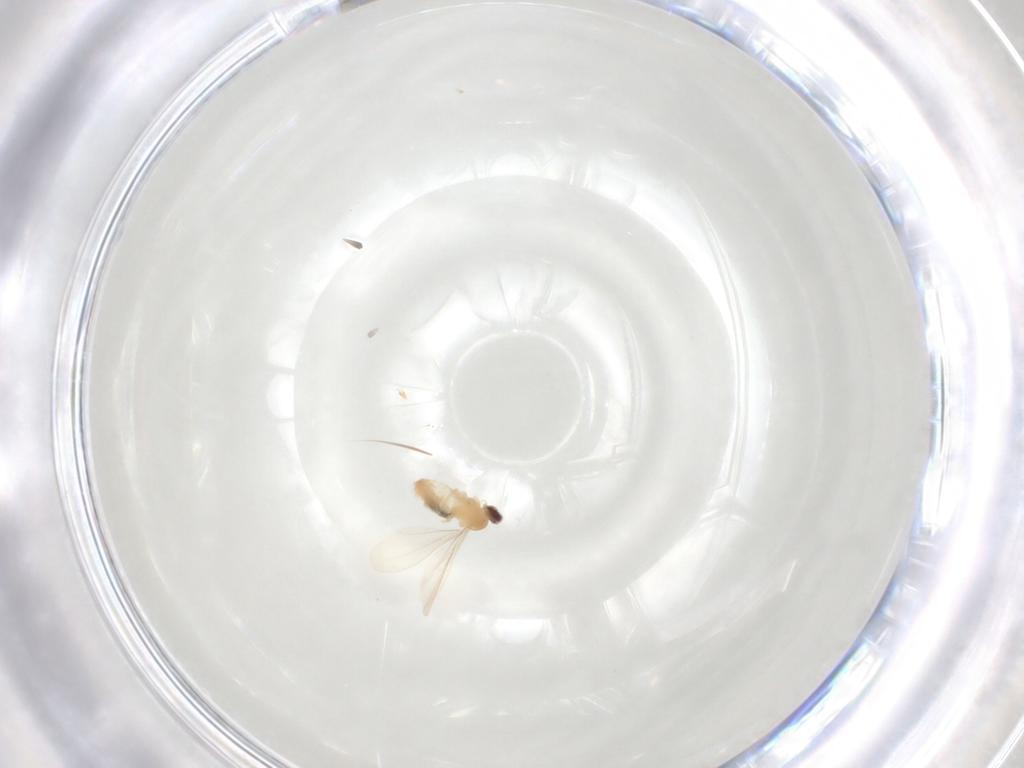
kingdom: Animalia
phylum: Arthropoda
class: Insecta
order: Diptera
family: Cecidomyiidae
